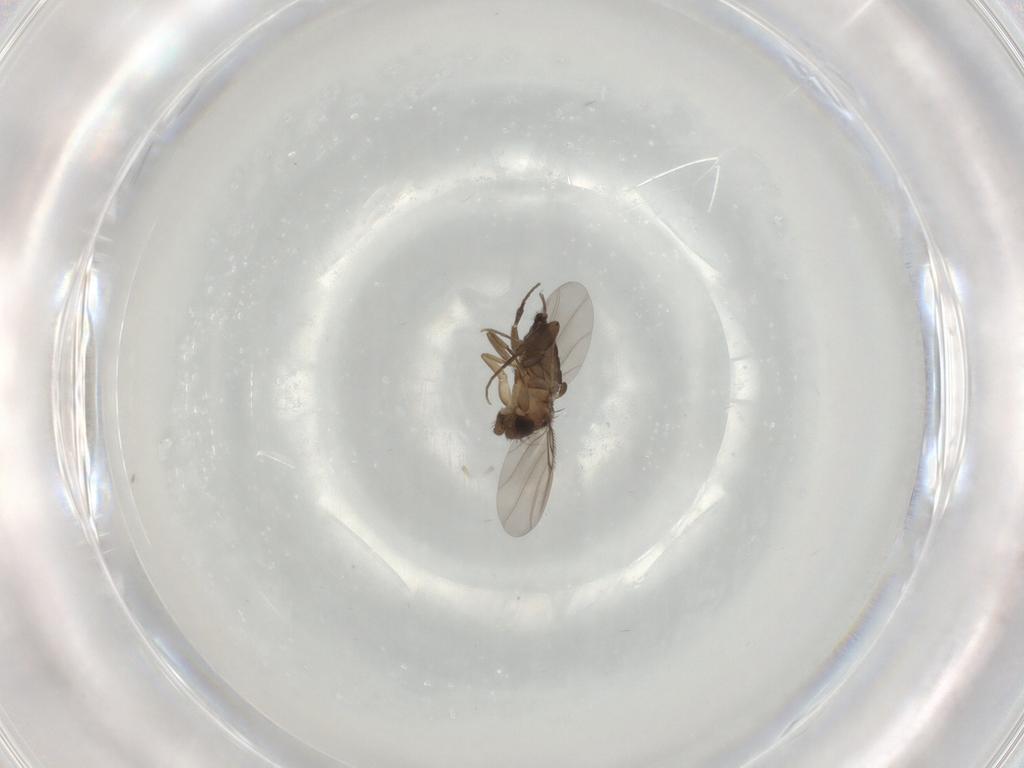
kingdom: Animalia
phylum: Arthropoda
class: Insecta
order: Diptera
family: Phoridae
